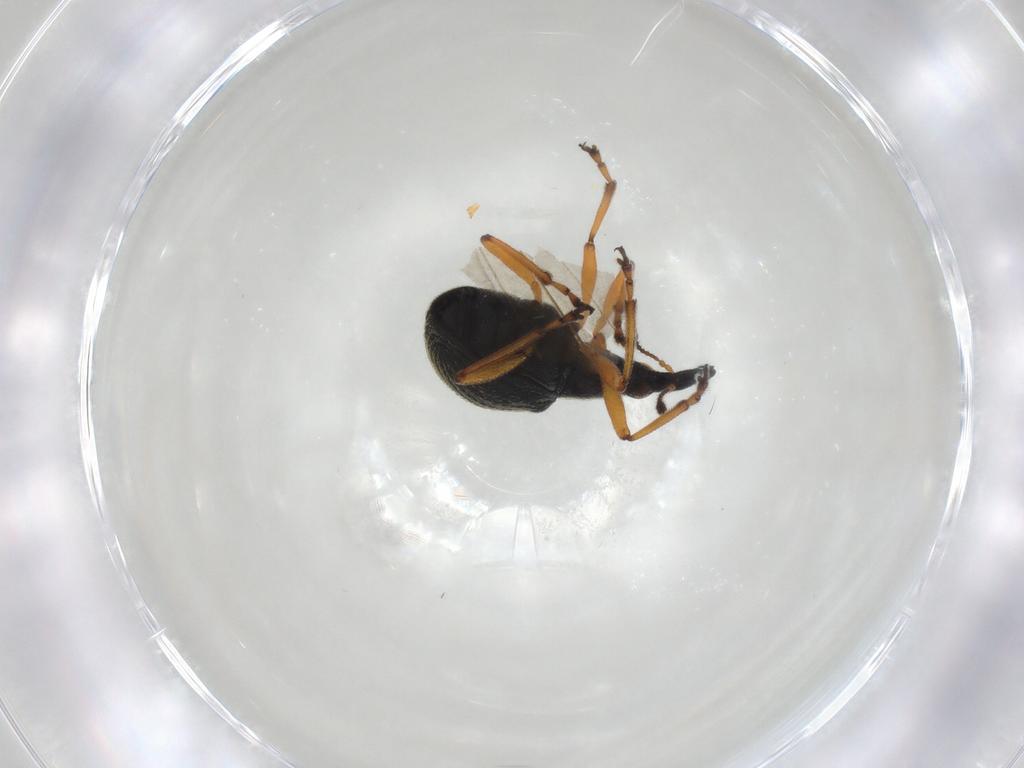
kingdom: Animalia
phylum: Arthropoda
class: Insecta
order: Coleoptera
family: Brentidae
